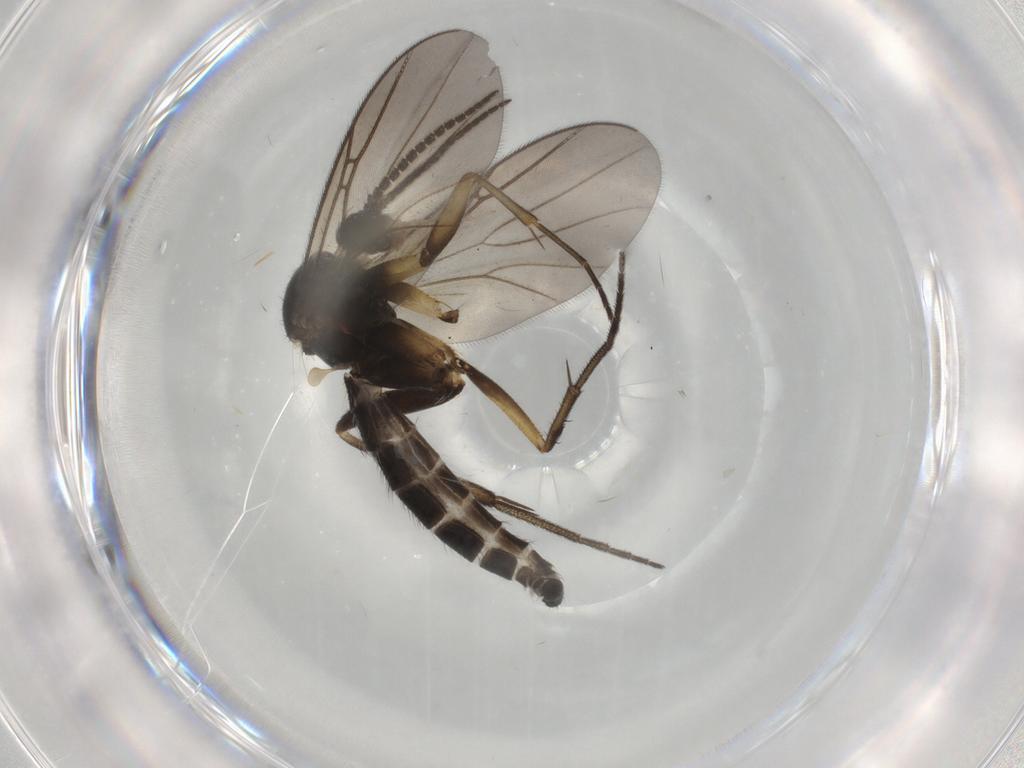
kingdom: Animalia
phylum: Arthropoda
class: Insecta
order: Diptera
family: Mycetophilidae
